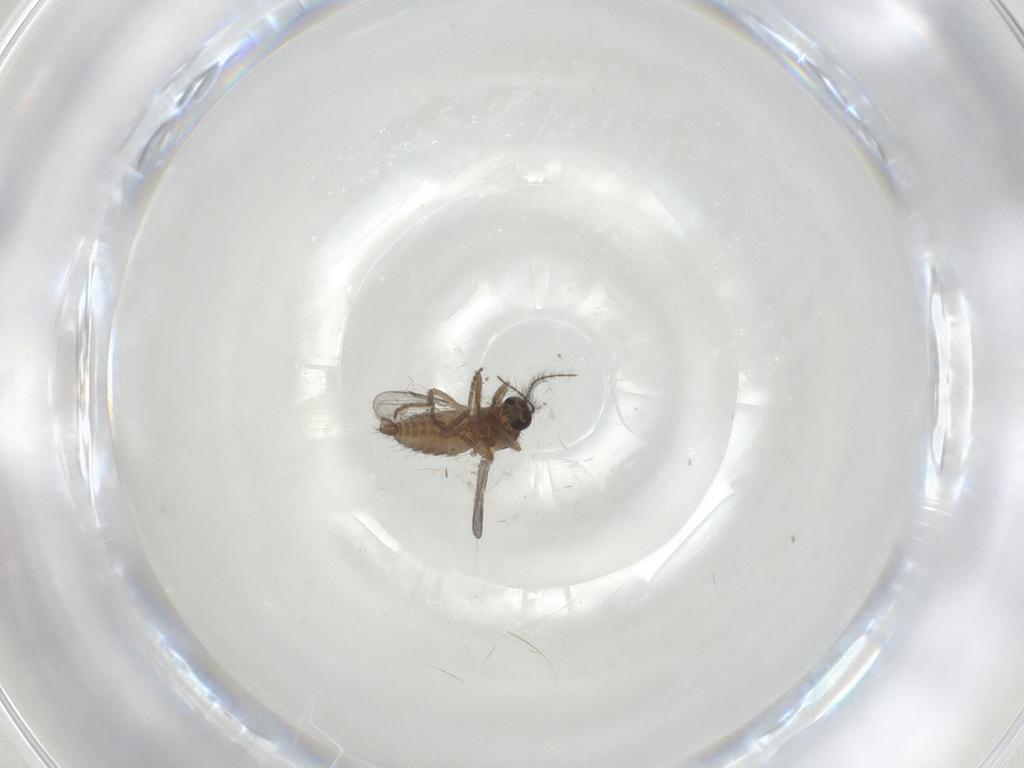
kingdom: Animalia
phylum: Arthropoda
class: Insecta
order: Diptera
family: Ceratopogonidae
